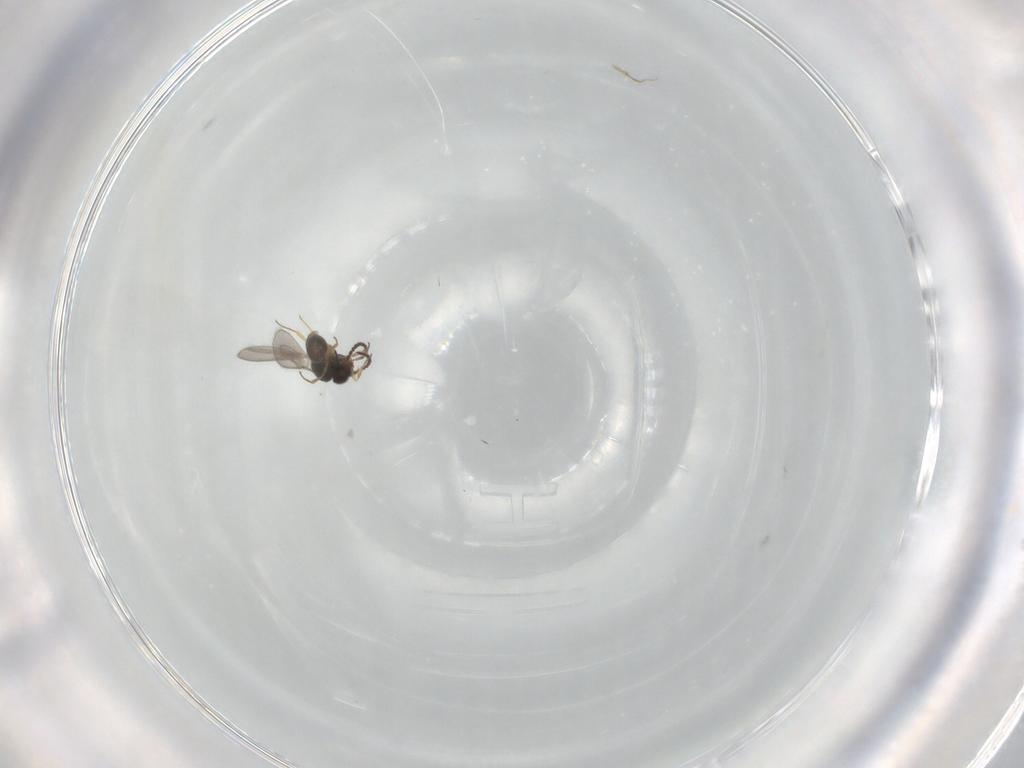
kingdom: Animalia
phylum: Arthropoda
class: Insecta
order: Hymenoptera
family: Scelionidae
